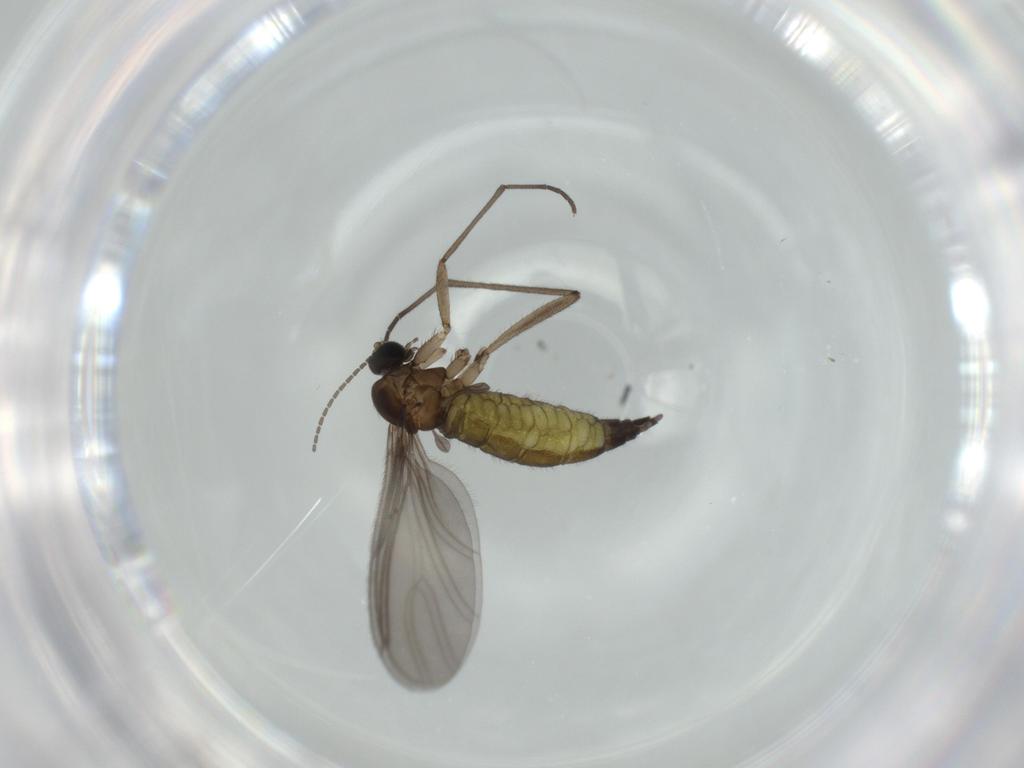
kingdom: Animalia
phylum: Arthropoda
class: Insecta
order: Diptera
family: Sciaridae
